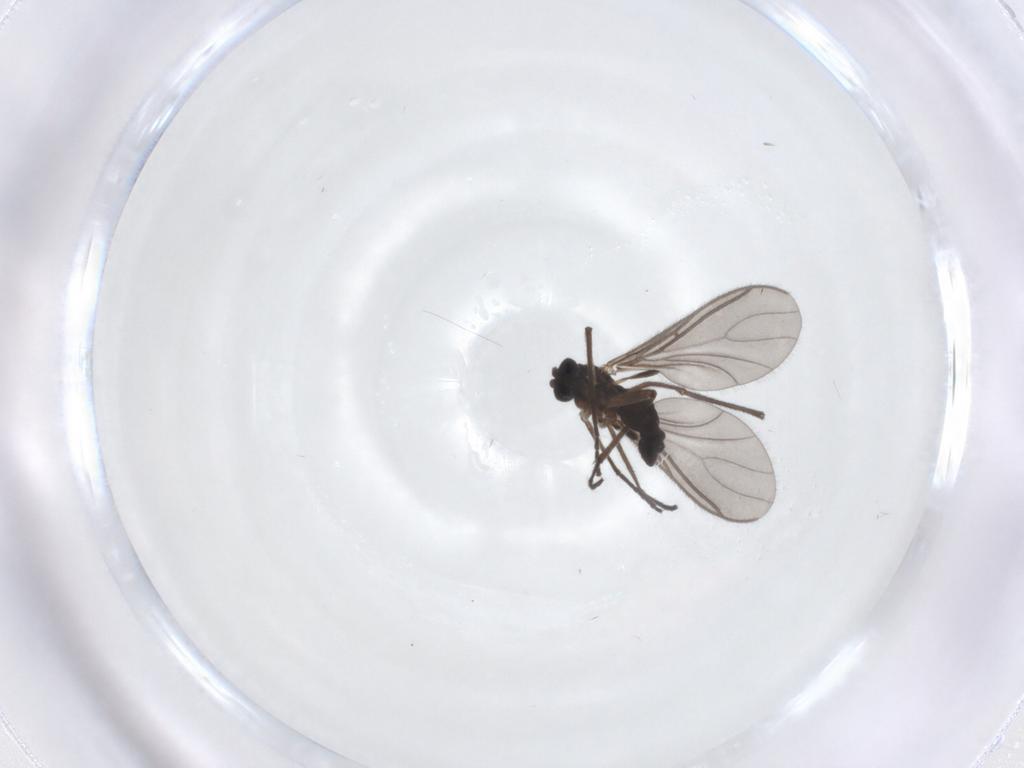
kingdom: Animalia
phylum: Arthropoda
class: Insecta
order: Diptera
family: Sciaridae
